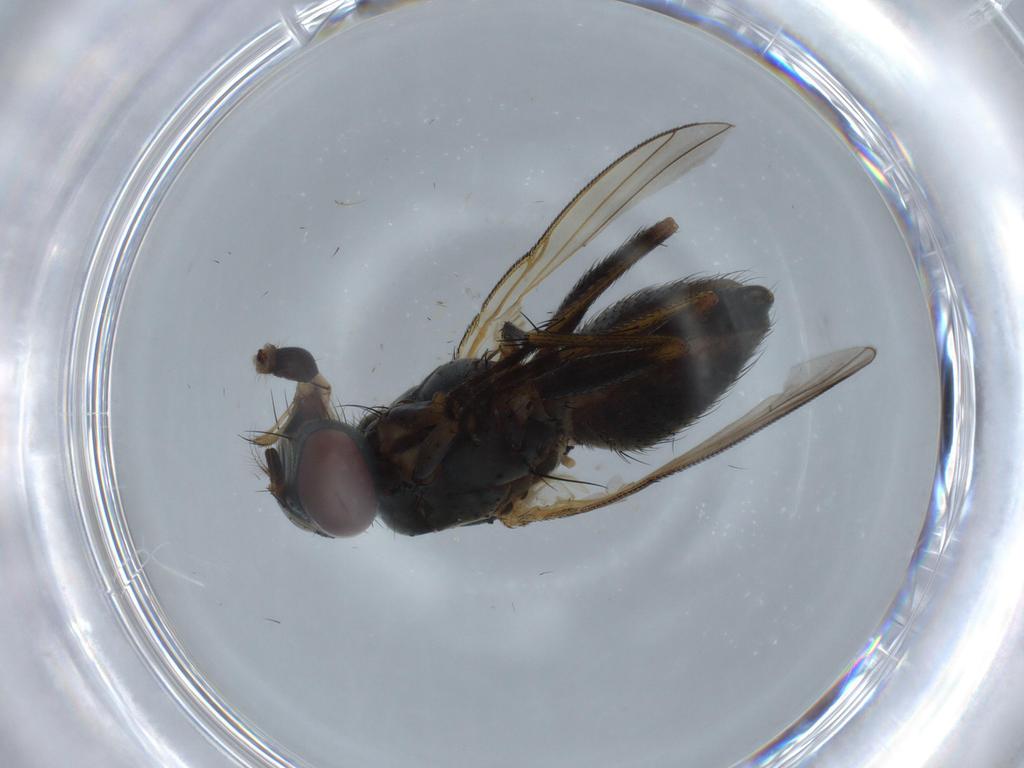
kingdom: Animalia
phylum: Arthropoda
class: Insecta
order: Diptera
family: Muscidae
